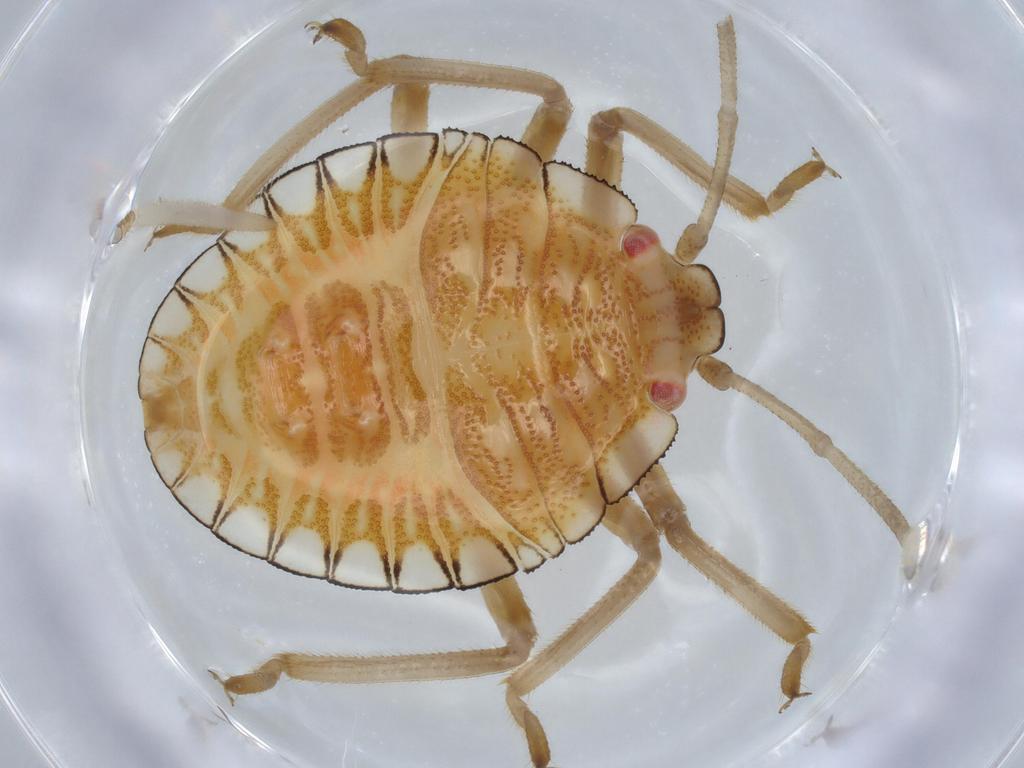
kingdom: Animalia
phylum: Arthropoda
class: Insecta
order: Hemiptera
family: Pentatomidae
